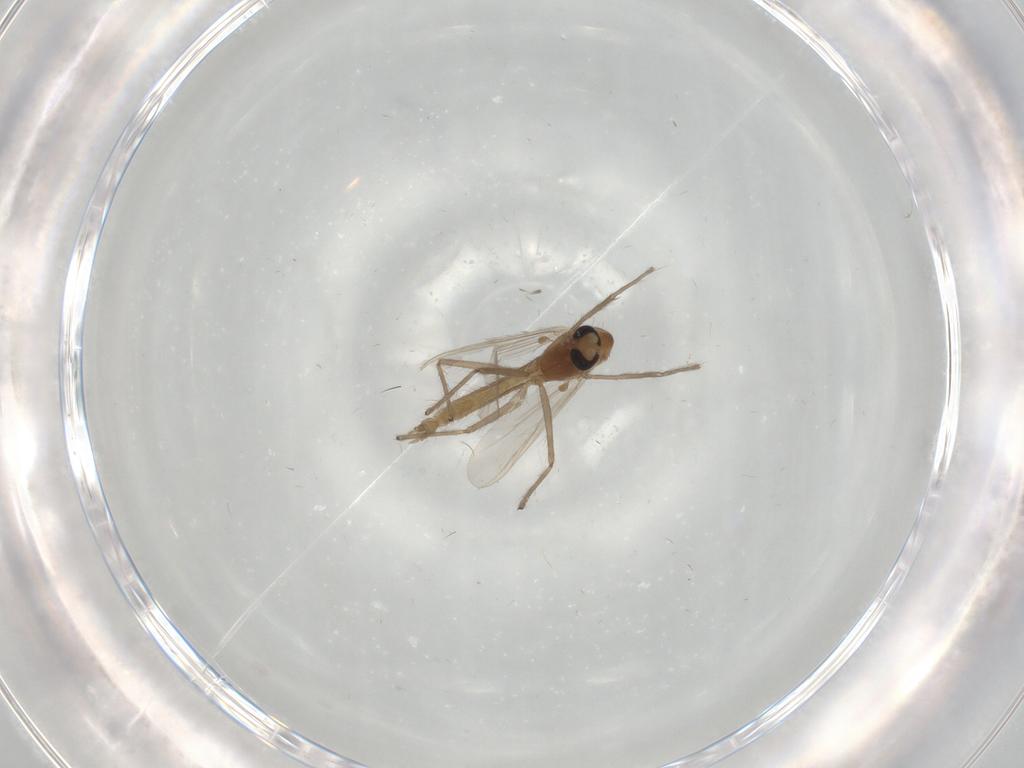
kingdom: Animalia
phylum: Arthropoda
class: Insecta
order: Diptera
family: Chironomidae
